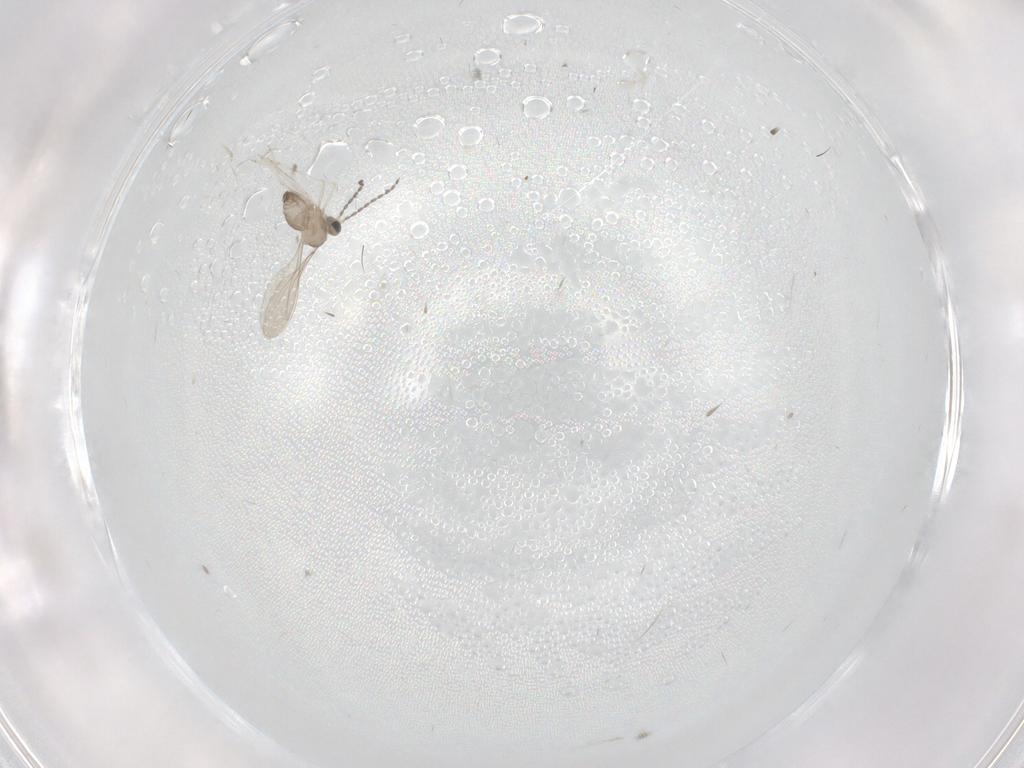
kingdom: Animalia
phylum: Arthropoda
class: Insecta
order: Diptera
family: Cecidomyiidae
